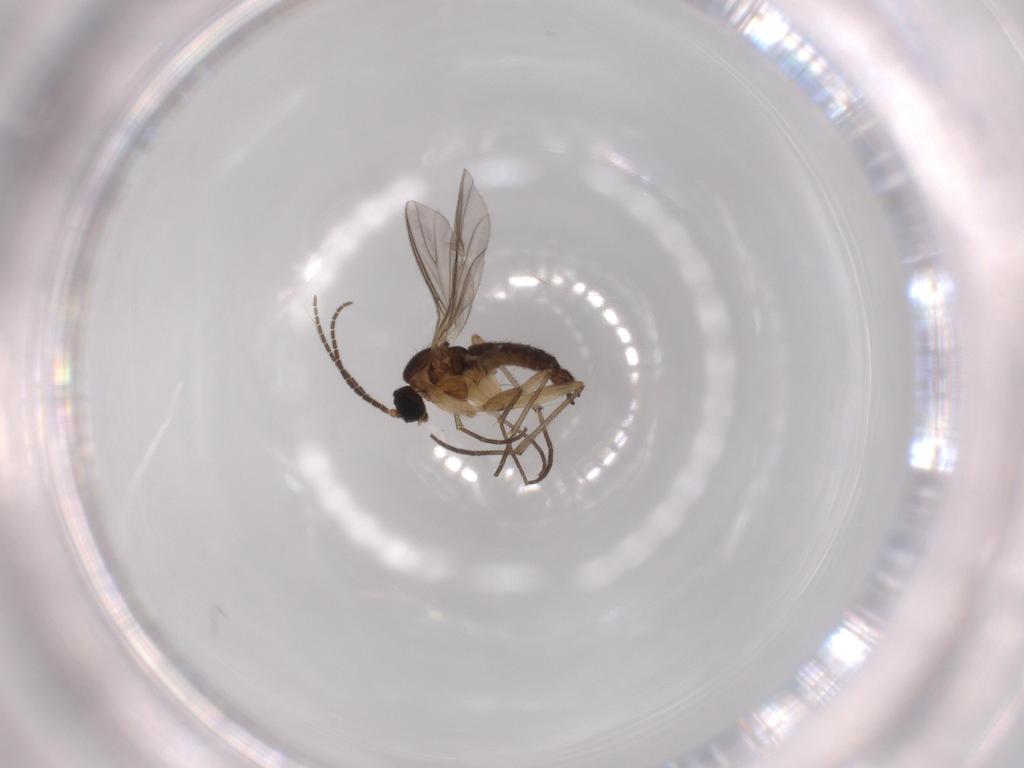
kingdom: Animalia
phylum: Arthropoda
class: Insecta
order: Diptera
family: Sciaridae
